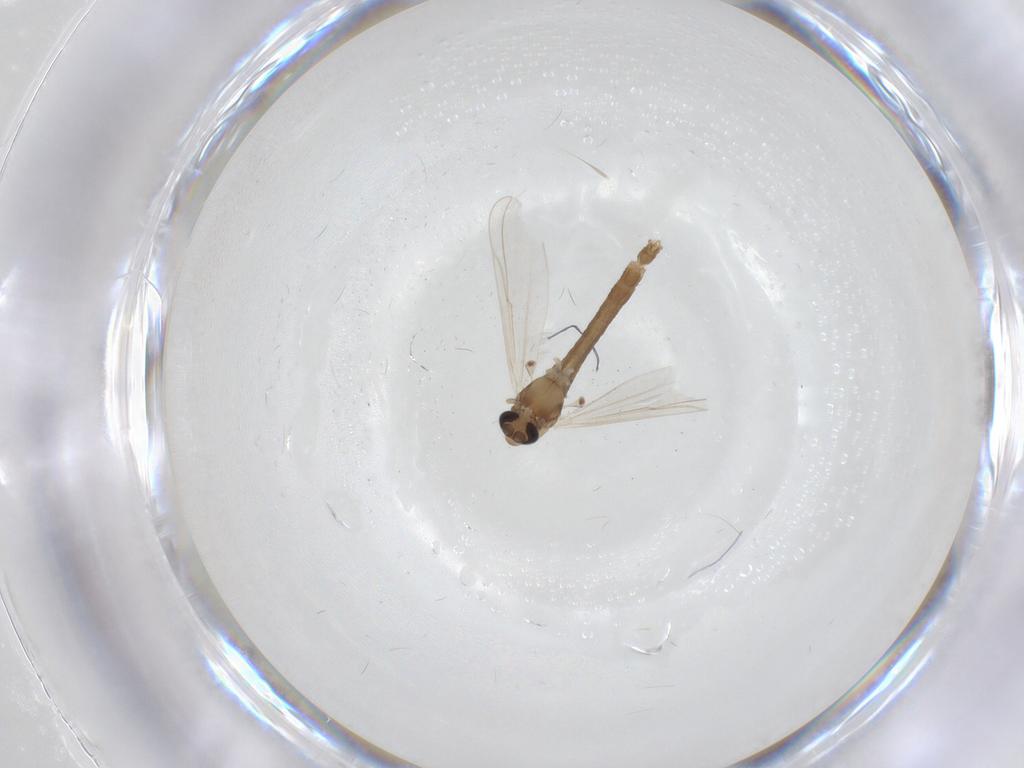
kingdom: Animalia
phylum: Arthropoda
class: Insecta
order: Diptera
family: Chironomidae
